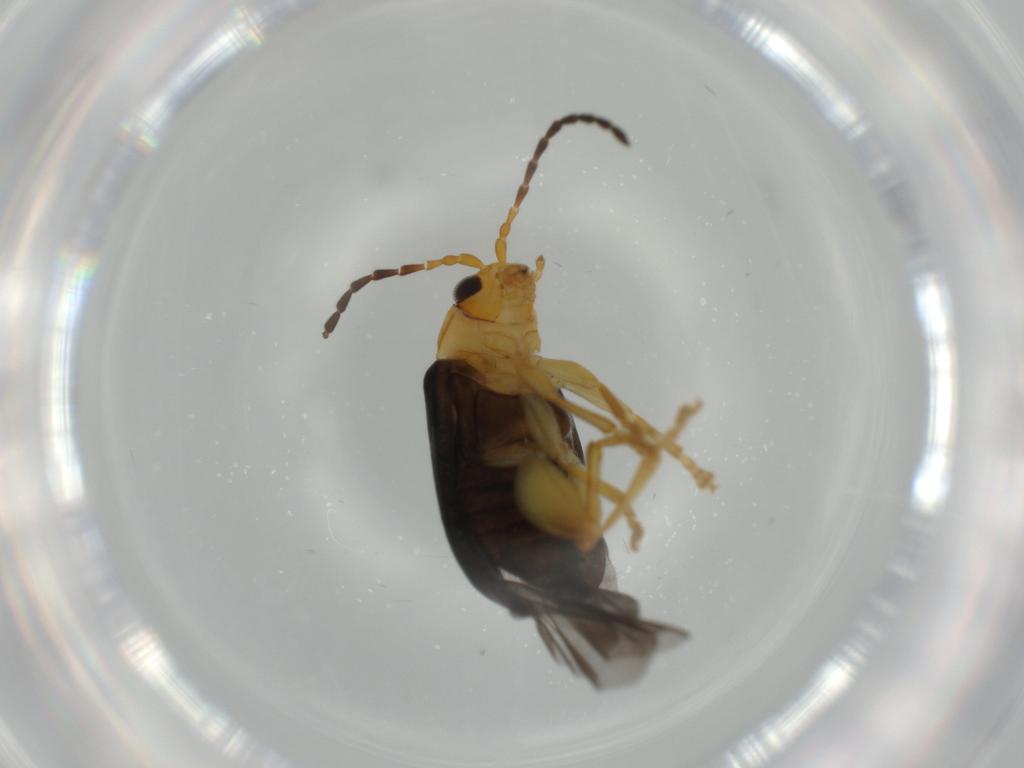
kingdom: Animalia
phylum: Arthropoda
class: Insecta
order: Coleoptera
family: Chrysomelidae
